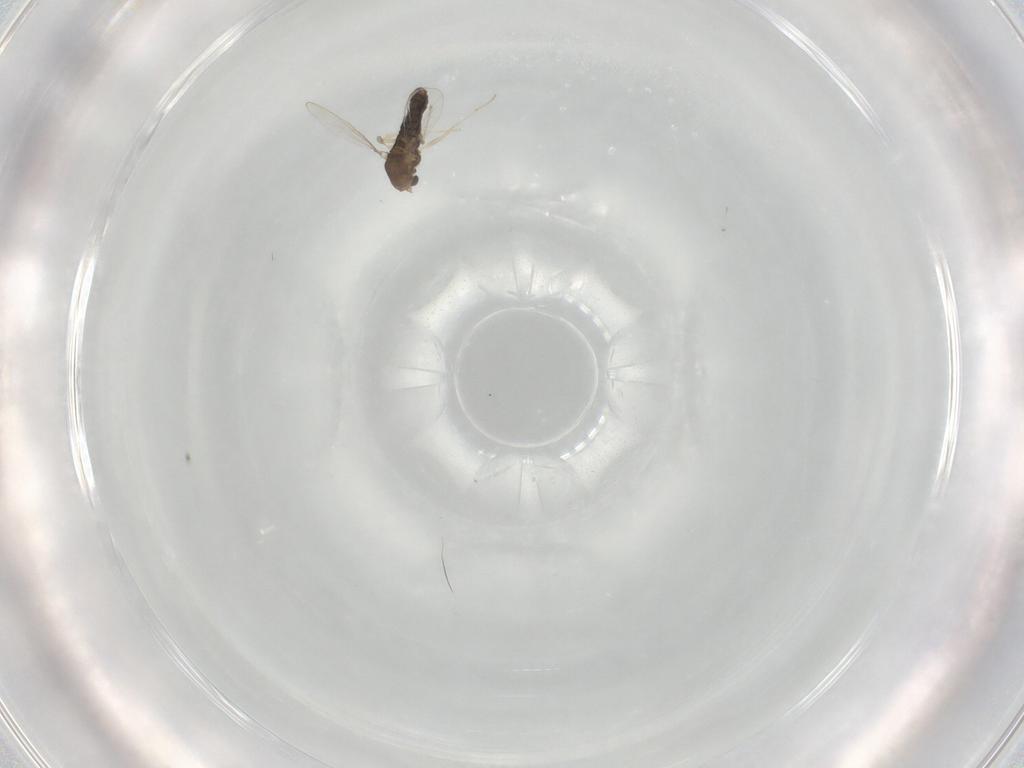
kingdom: Animalia
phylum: Arthropoda
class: Insecta
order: Diptera
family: Chironomidae
